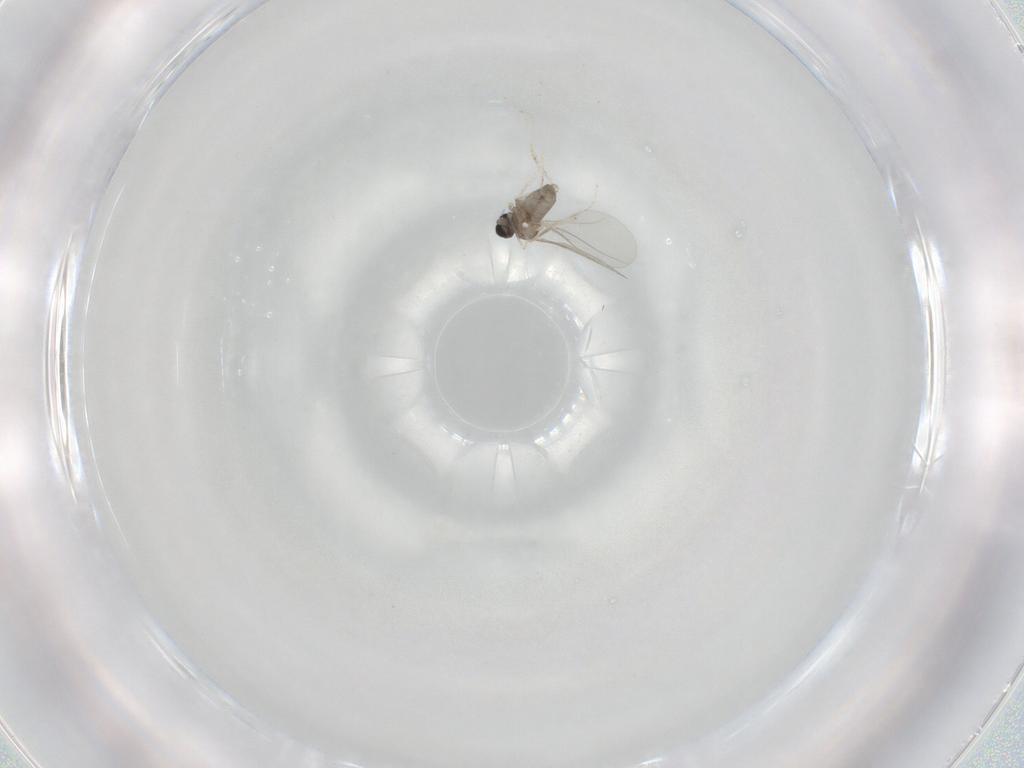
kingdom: Animalia
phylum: Arthropoda
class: Insecta
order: Diptera
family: Cecidomyiidae
